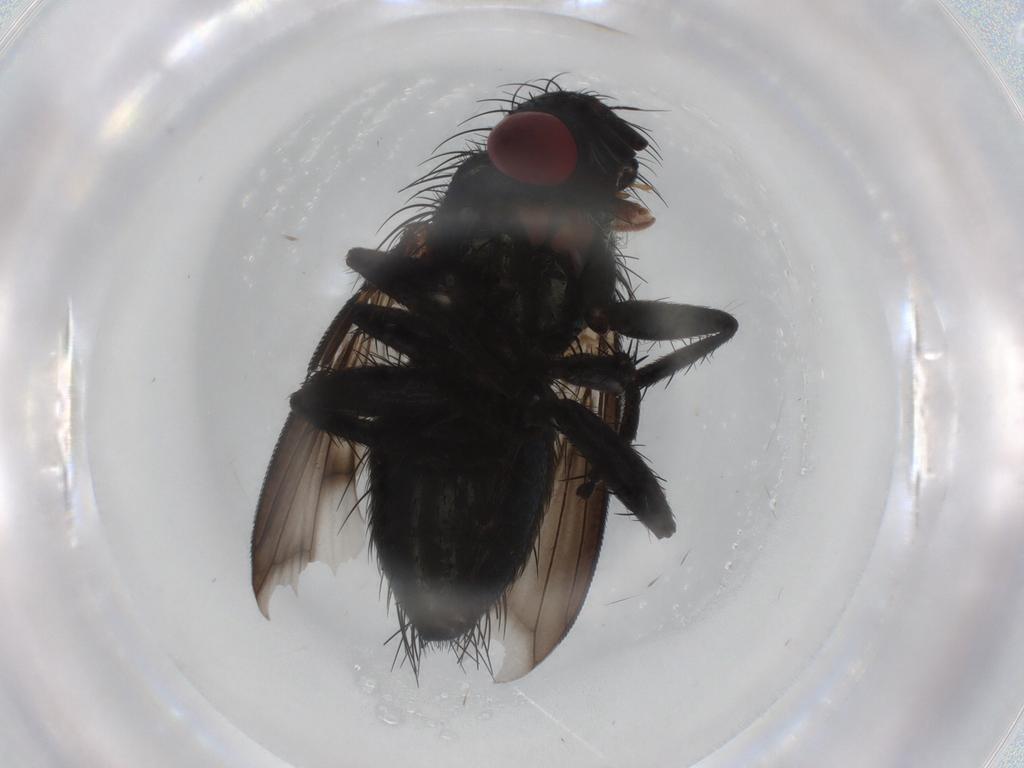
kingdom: Animalia
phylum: Arthropoda
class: Insecta
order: Diptera
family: Tachinidae
